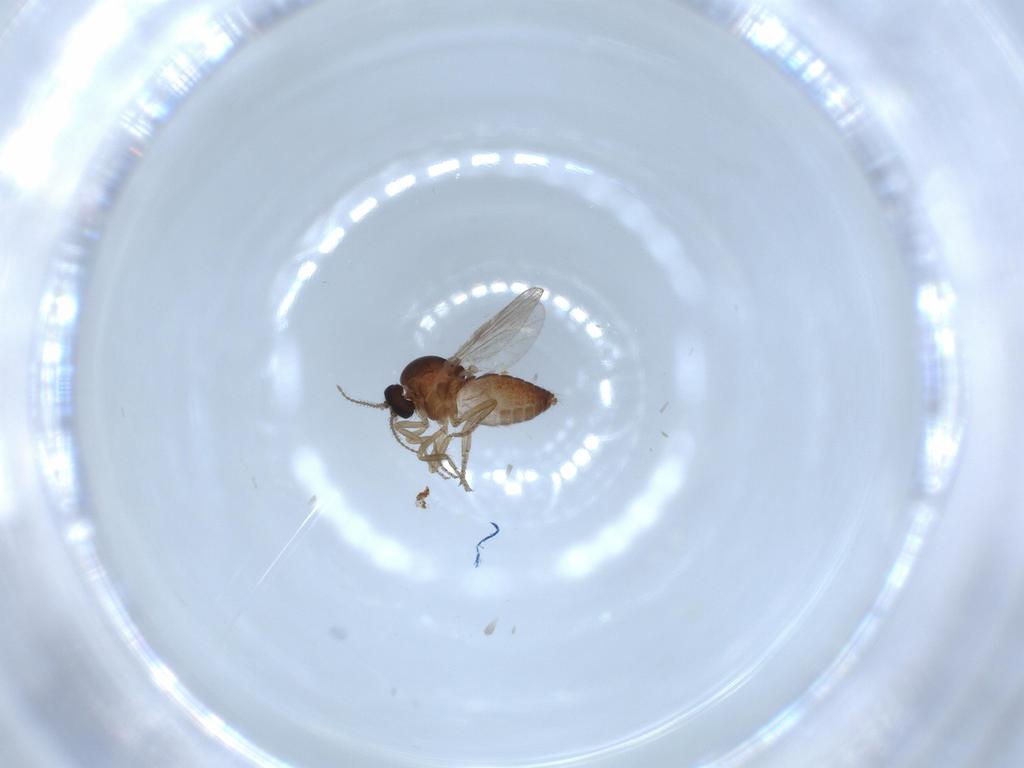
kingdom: Animalia
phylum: Arthropoda
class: Insecta
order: Diptera
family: Ceratopogonidae
